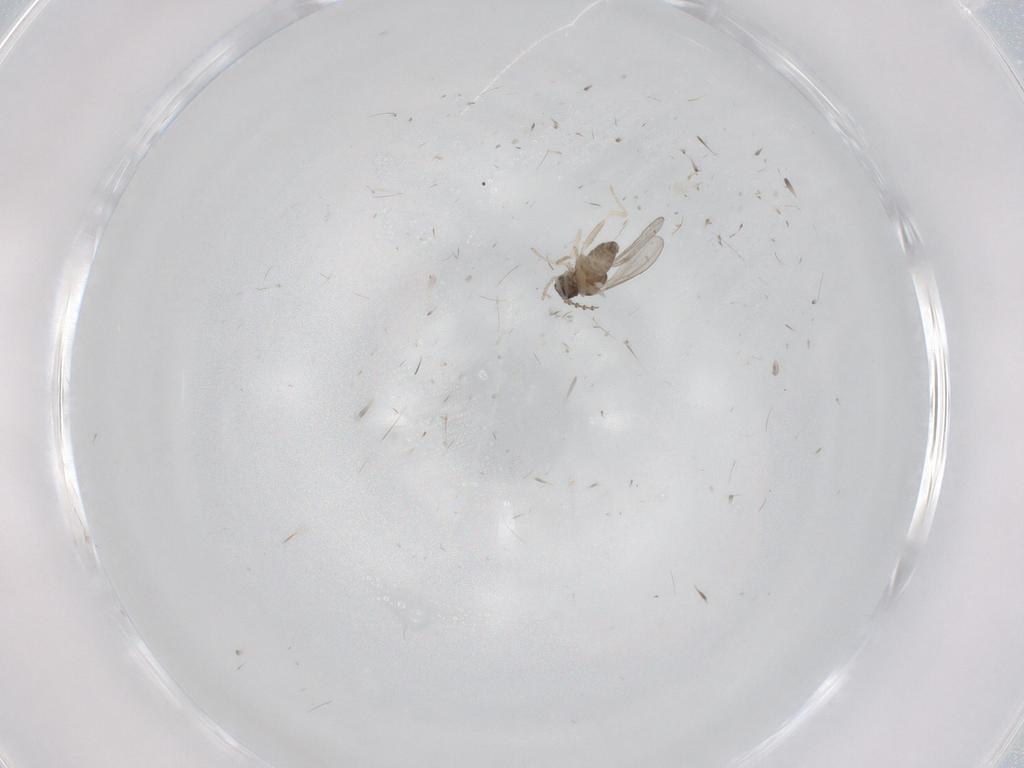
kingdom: Animalia
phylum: Arthropoda
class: Insecta
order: Diptera
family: Cecidomyiidae
